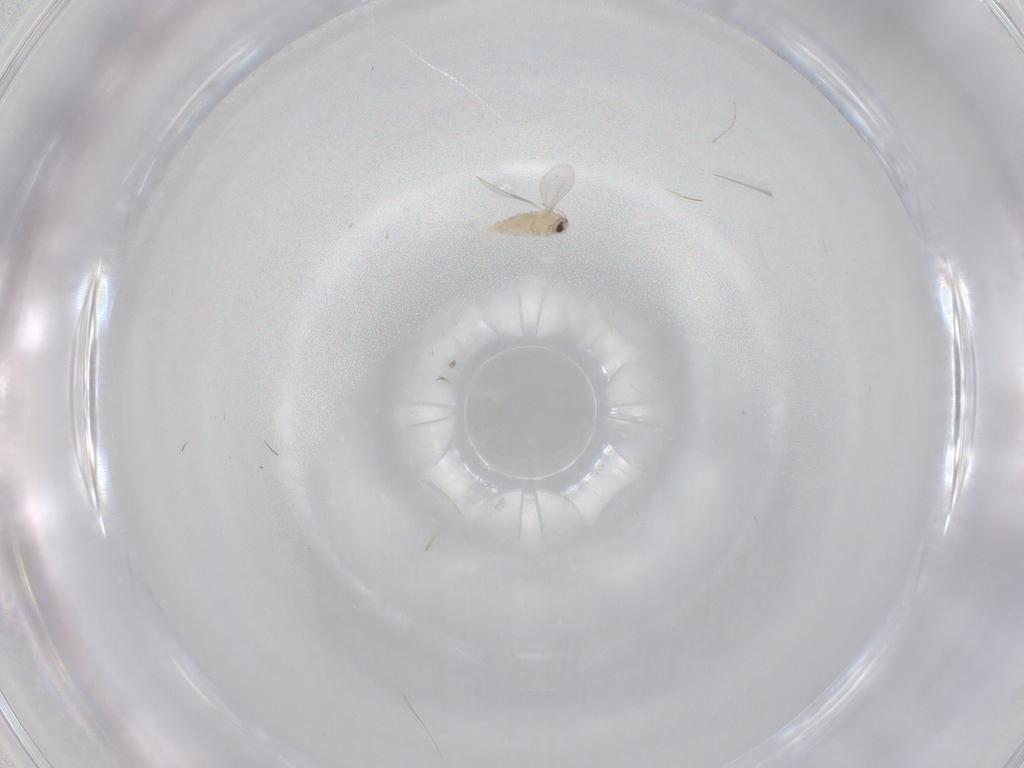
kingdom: Animalia
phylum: Arthropoda
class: Insecta
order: Diptera
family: Cecidomyiidae
